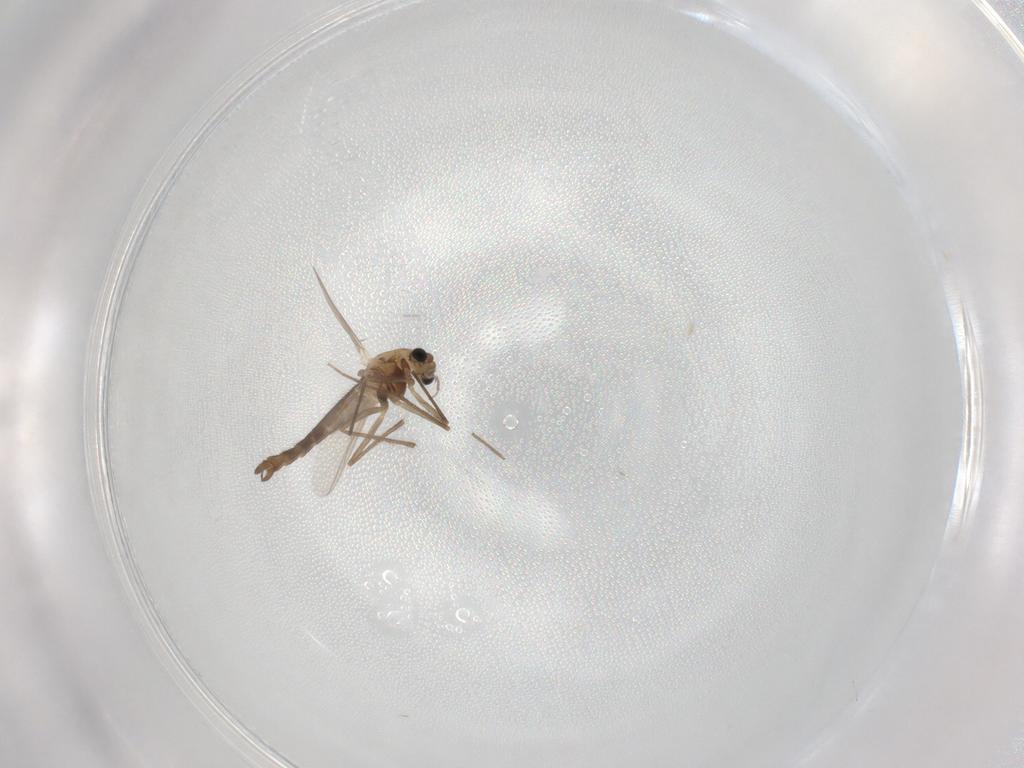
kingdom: Animalia
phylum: Arthropoda
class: Insecta
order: Diptera
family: Chironomidae
